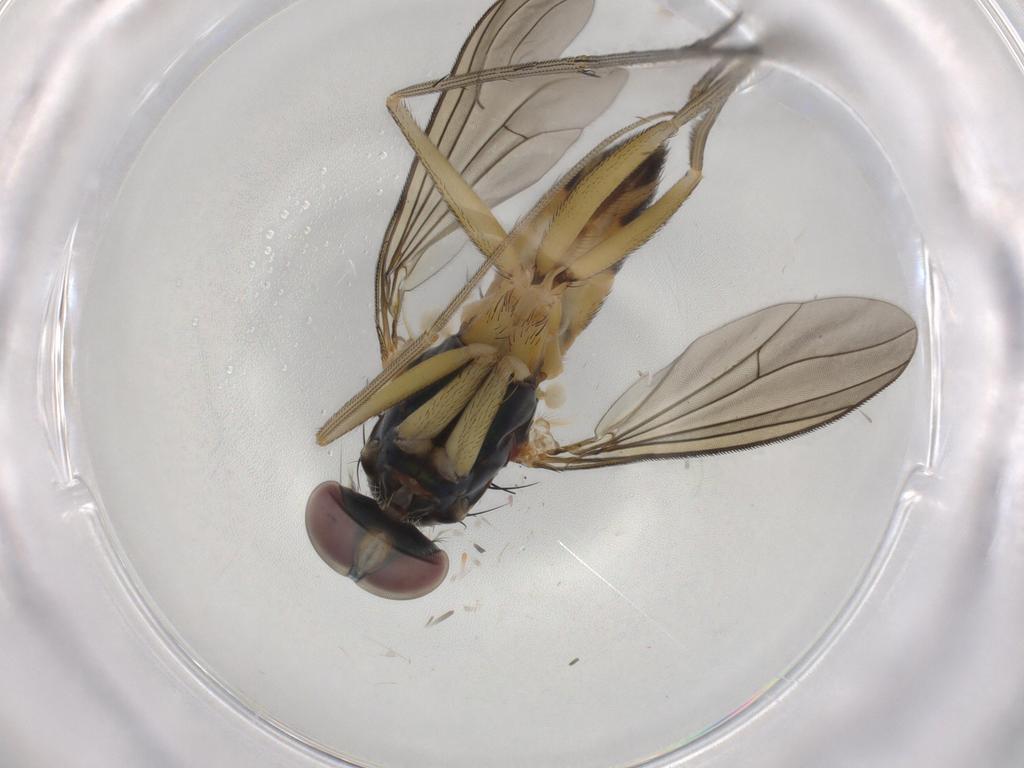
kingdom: Animalia
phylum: Arthropoda
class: Insecta
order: Diptera
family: Dolichopodidae
